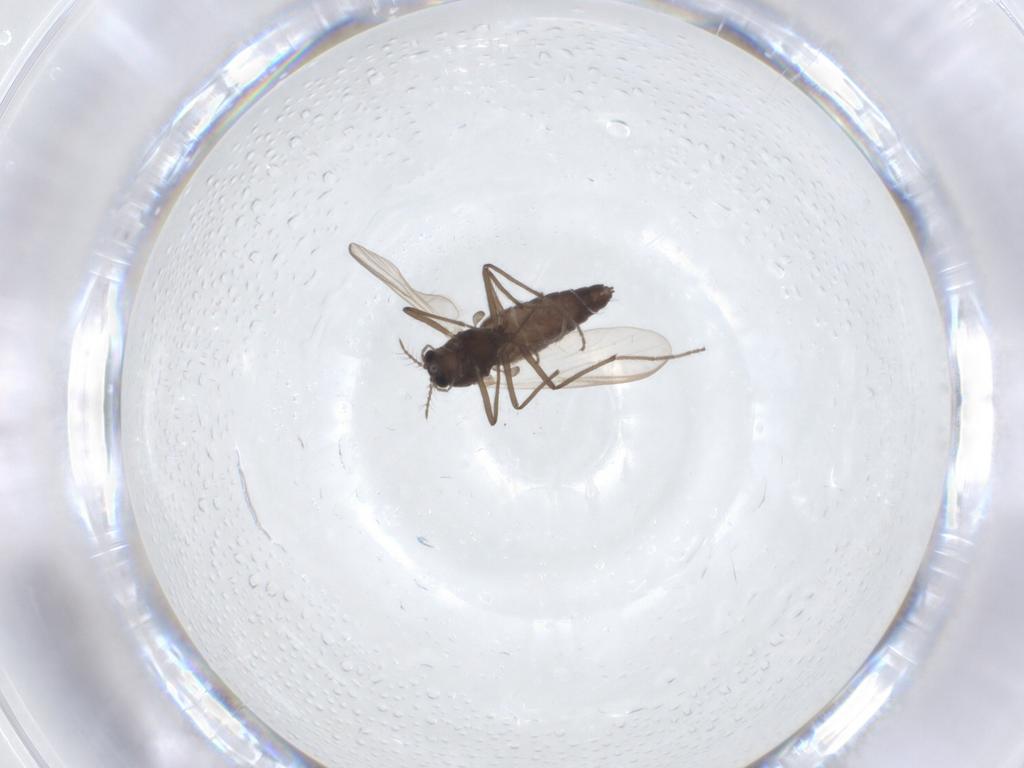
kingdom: Animalia
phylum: Arthropoda
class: Insecta
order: Diptera
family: Chironomidae
